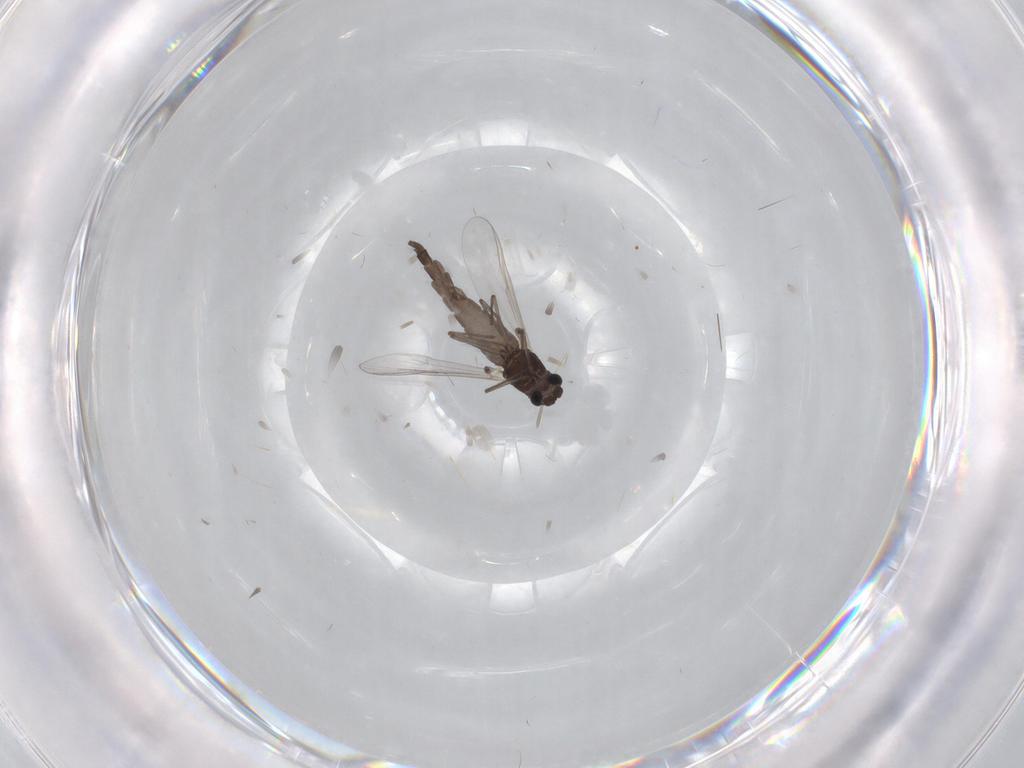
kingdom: Animalia
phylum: Arthropoda
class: Insecta
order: Diptera
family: Chironomidae
